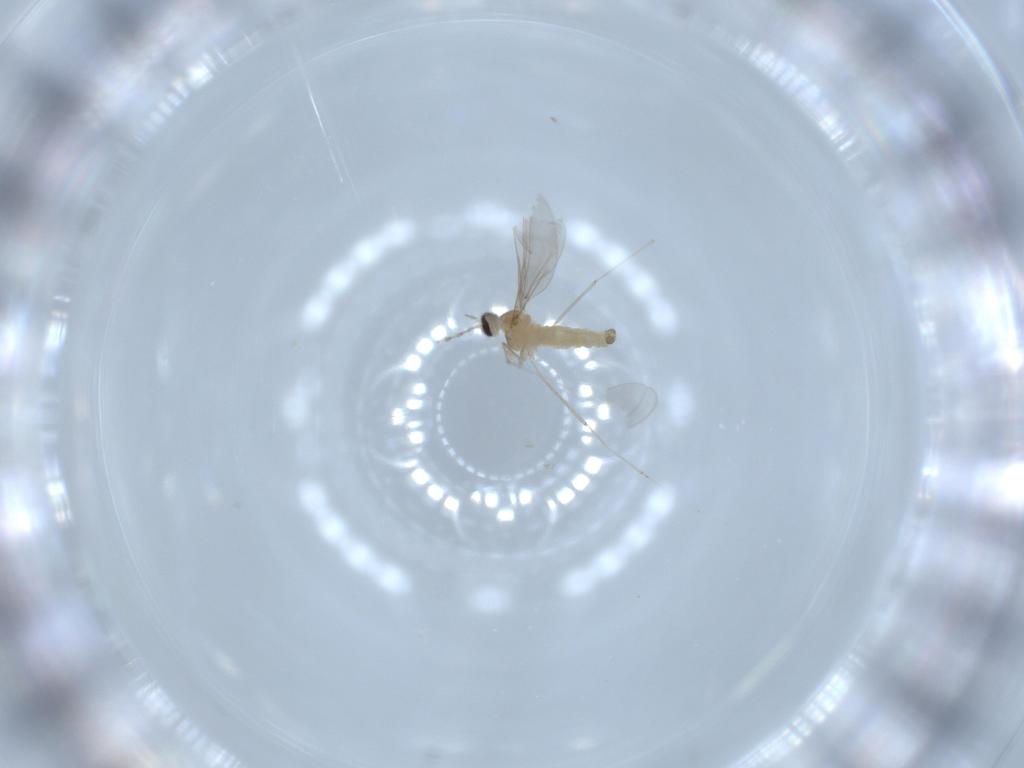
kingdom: Animalia
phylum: Arthropoda
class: Insecta
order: Diptera
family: Cecidomyiidae
